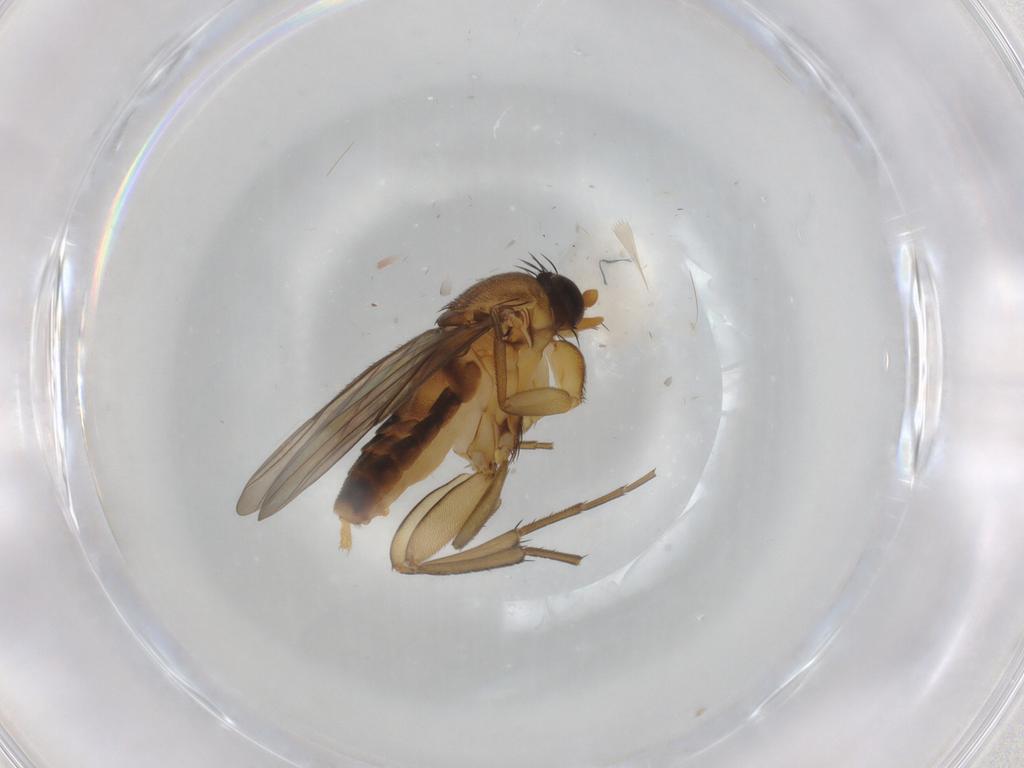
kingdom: Animalia
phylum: Arthropoda
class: Insecta
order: Diptera
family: Phoridae
